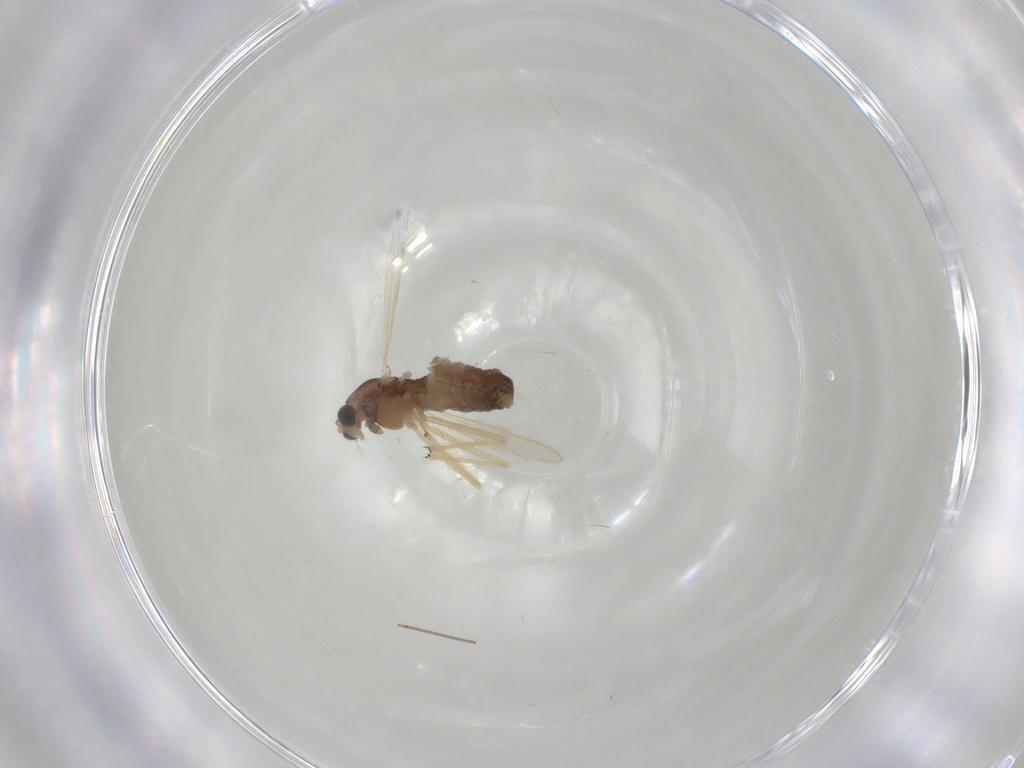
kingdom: Animalia
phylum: Arthropoda
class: Insecta
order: Diptera
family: Chironomidae
